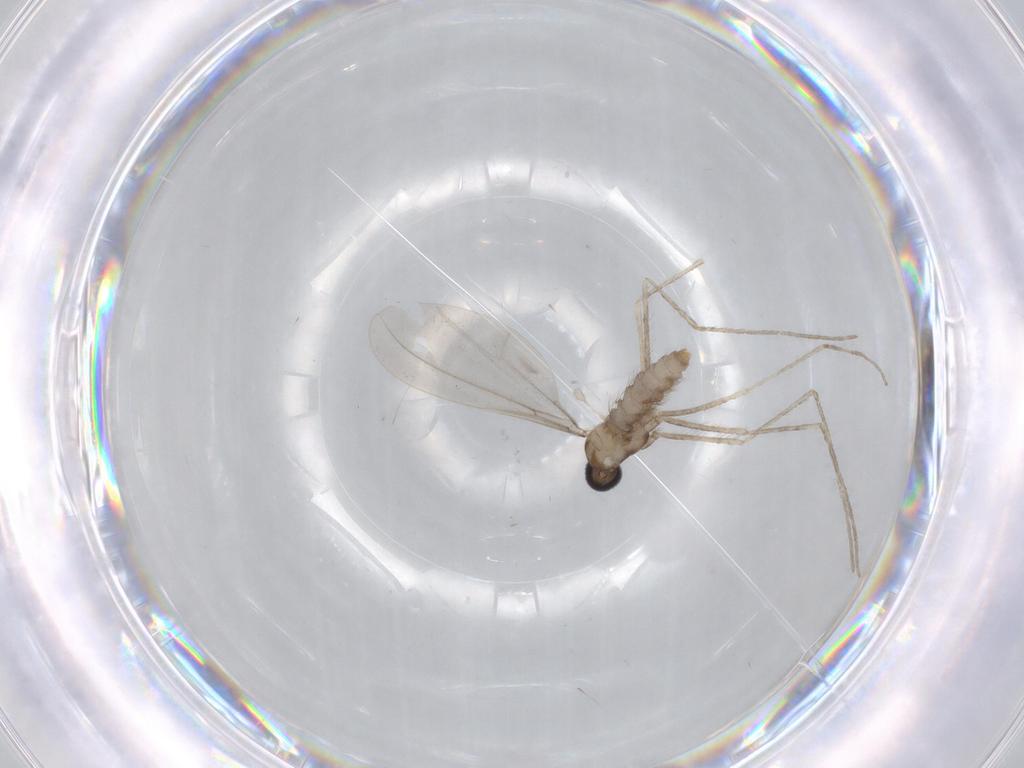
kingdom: Animalia
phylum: Arthropoda
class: Insecta
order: Diptera
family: Cecidomyiidae
